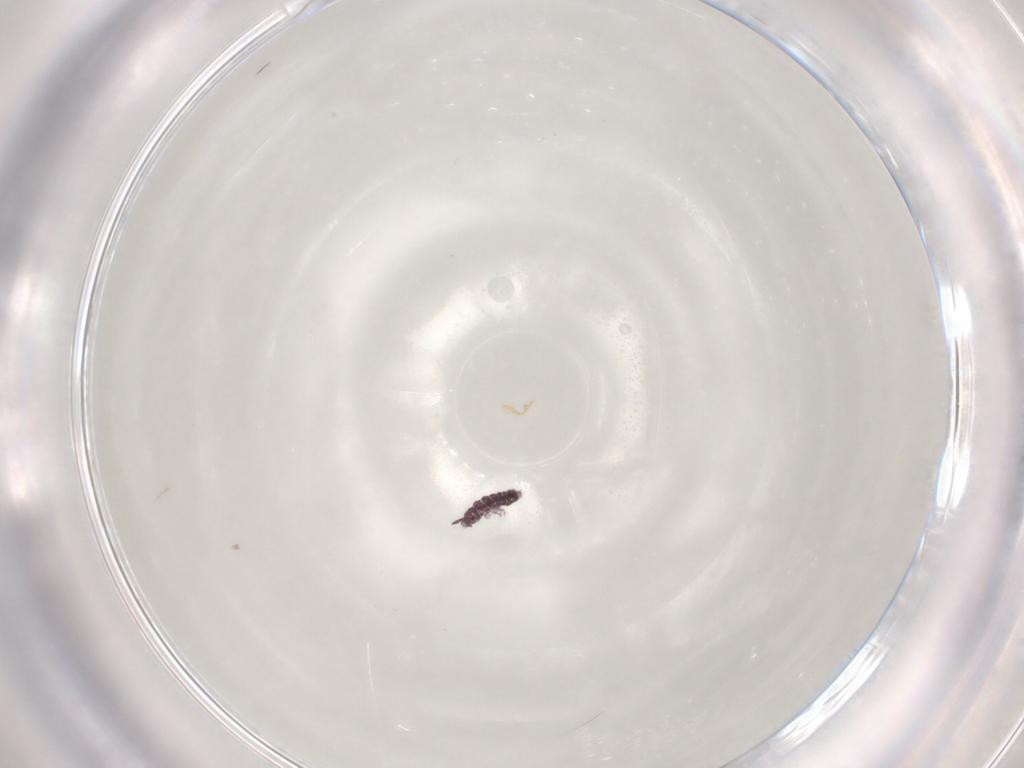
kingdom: Animalia
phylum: Arthropoda
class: Collembola
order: Poduromorpha
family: Hypogastruridae
